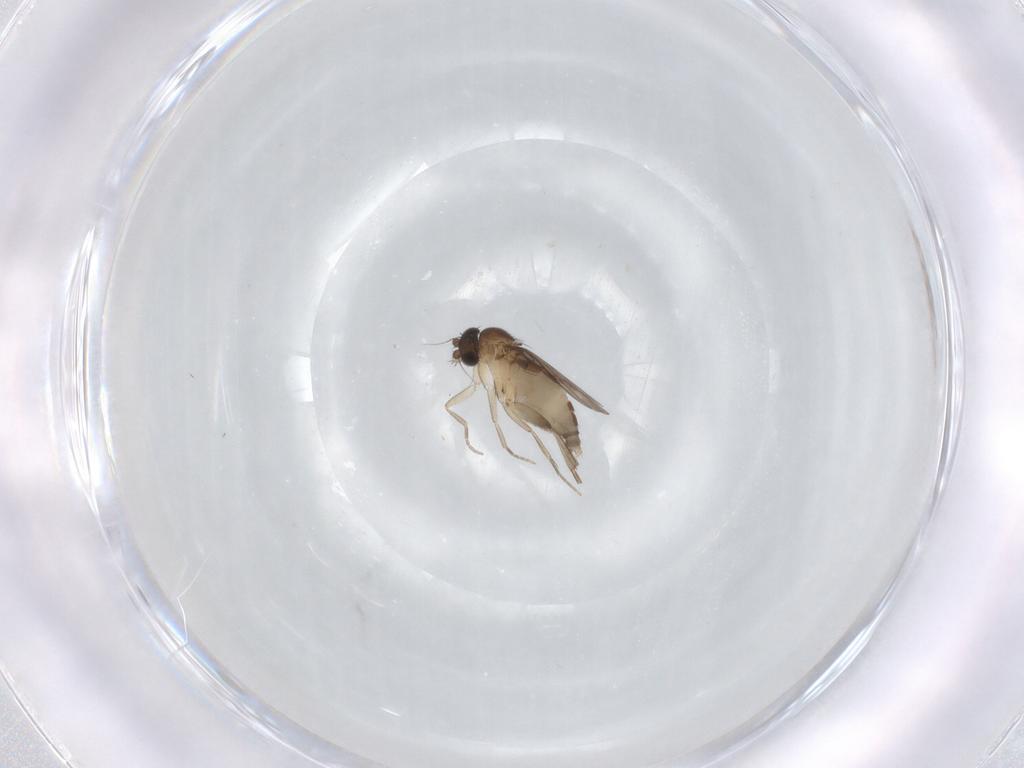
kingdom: Animalia
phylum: Arthropoda
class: Insecta
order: Diptera
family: Phoridae
